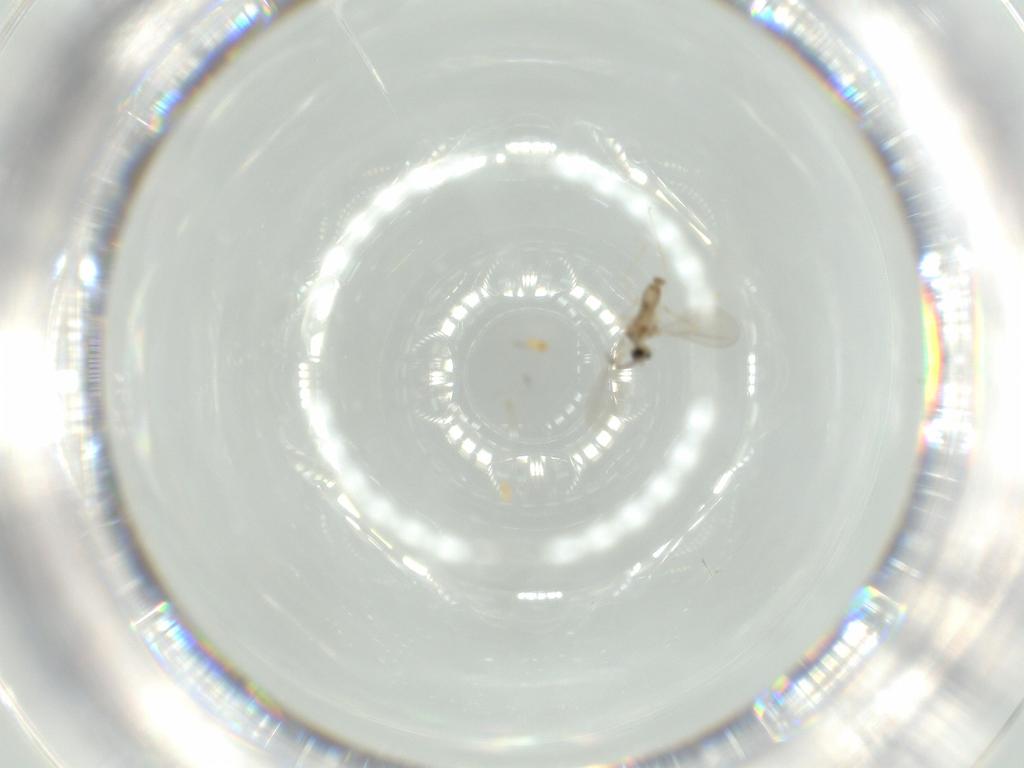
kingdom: Animalia
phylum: Arthropoda
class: Insecta
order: Diptera
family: Cecidomyiidae
